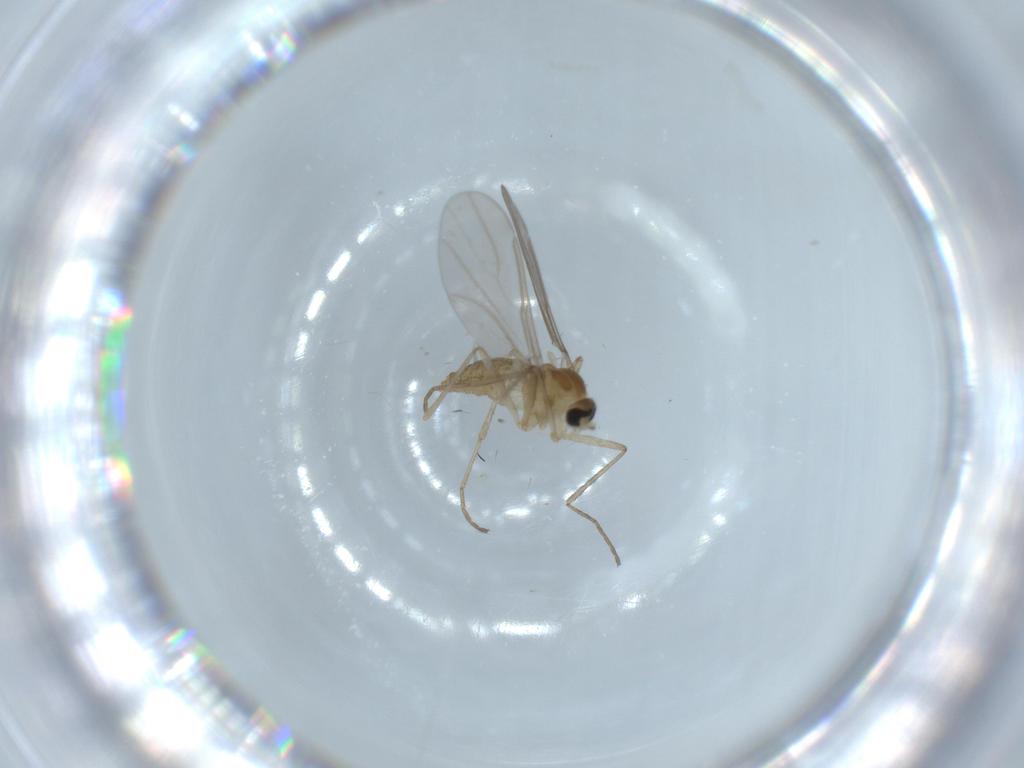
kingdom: Animalia
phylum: Arthropoda
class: Insecta
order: Diptera
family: Cecidomyiidae
